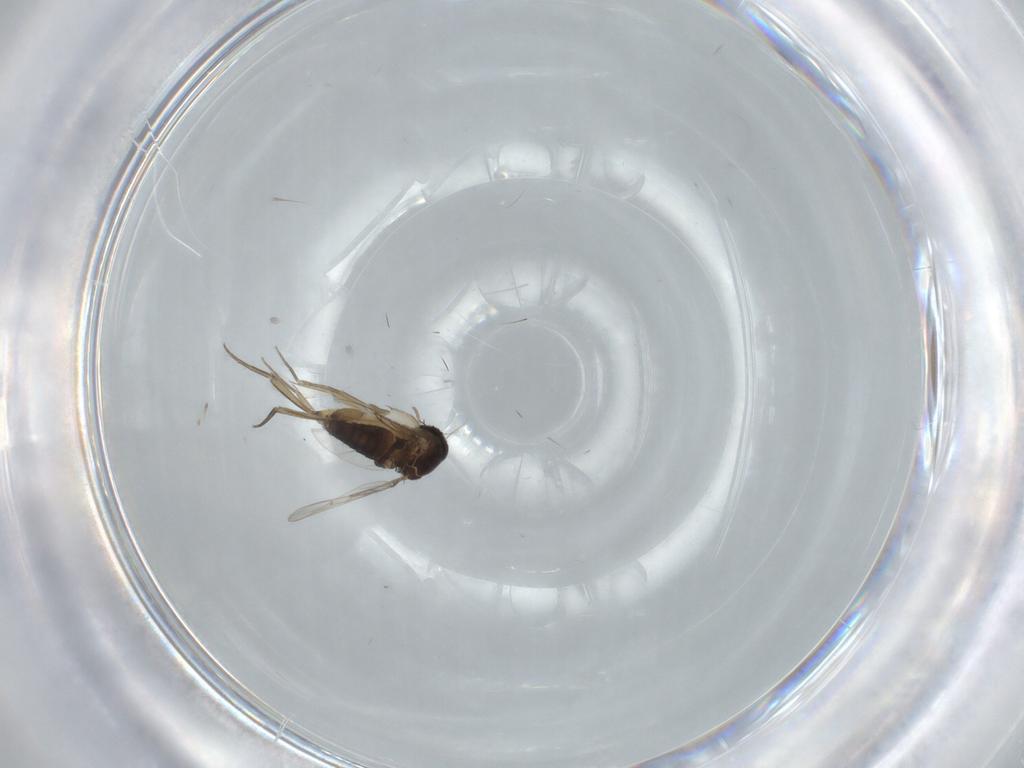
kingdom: Animalia
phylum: Arthropoda
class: Insecta
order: Diptera
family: Phoridae
